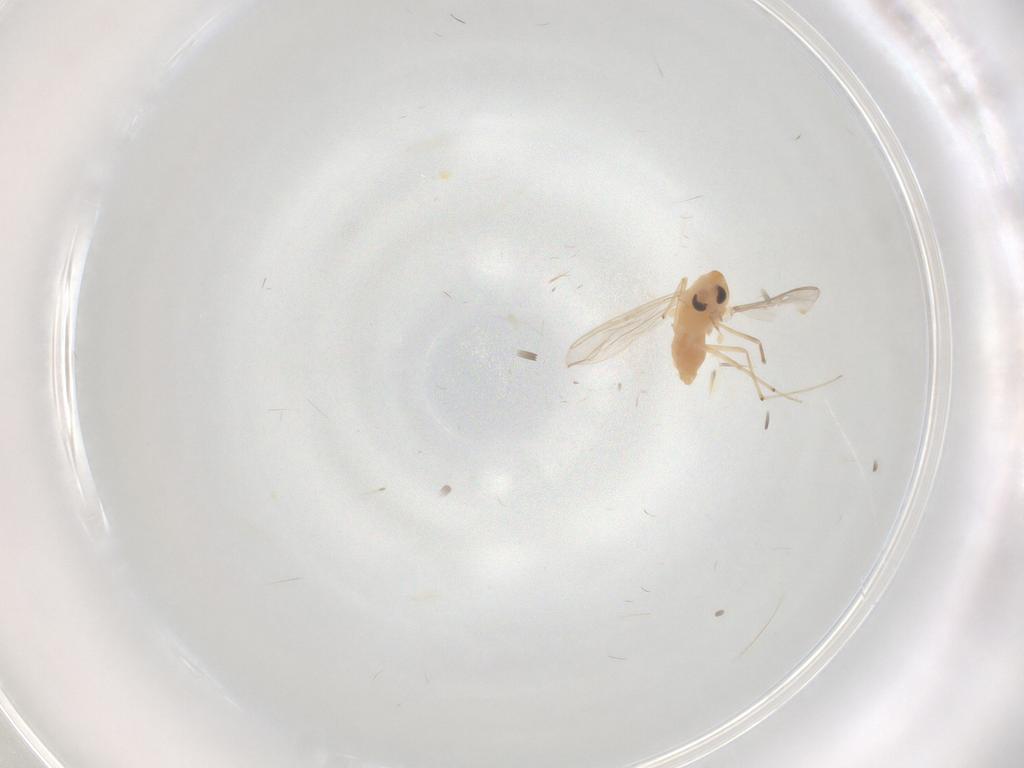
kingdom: Animalia
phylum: Arthropoda
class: Insecta
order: Diptera
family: Chironomidae
